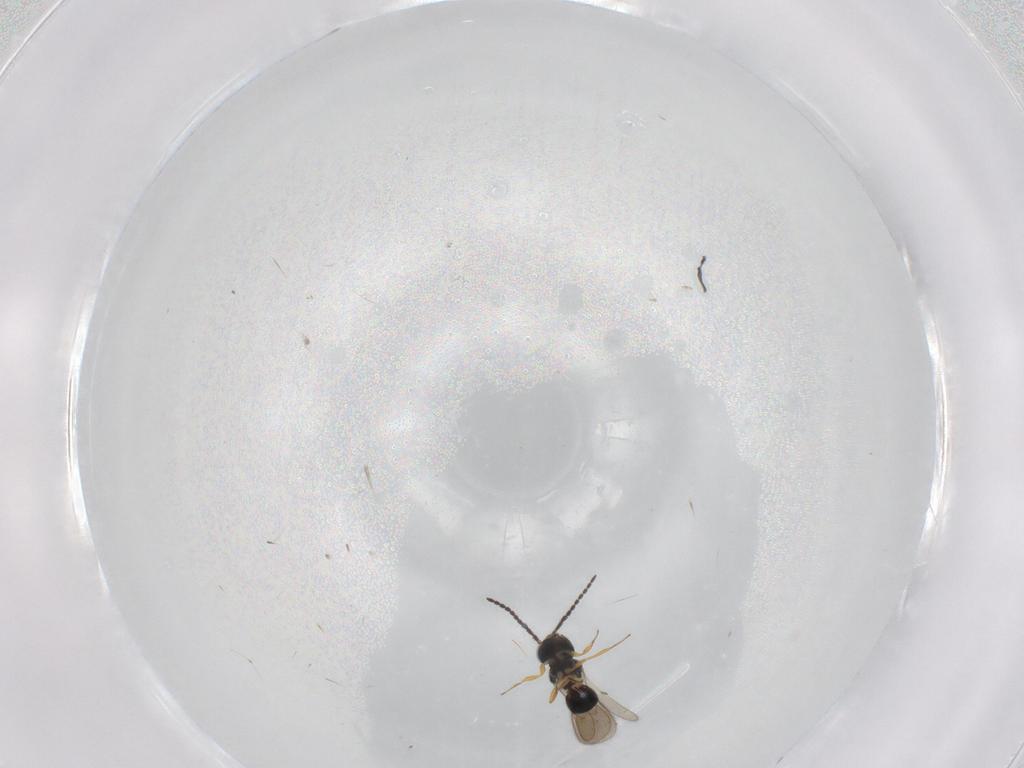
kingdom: Animalia
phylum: Arthropoda
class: Insecta
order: Hymenoptera
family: Scelionidae
